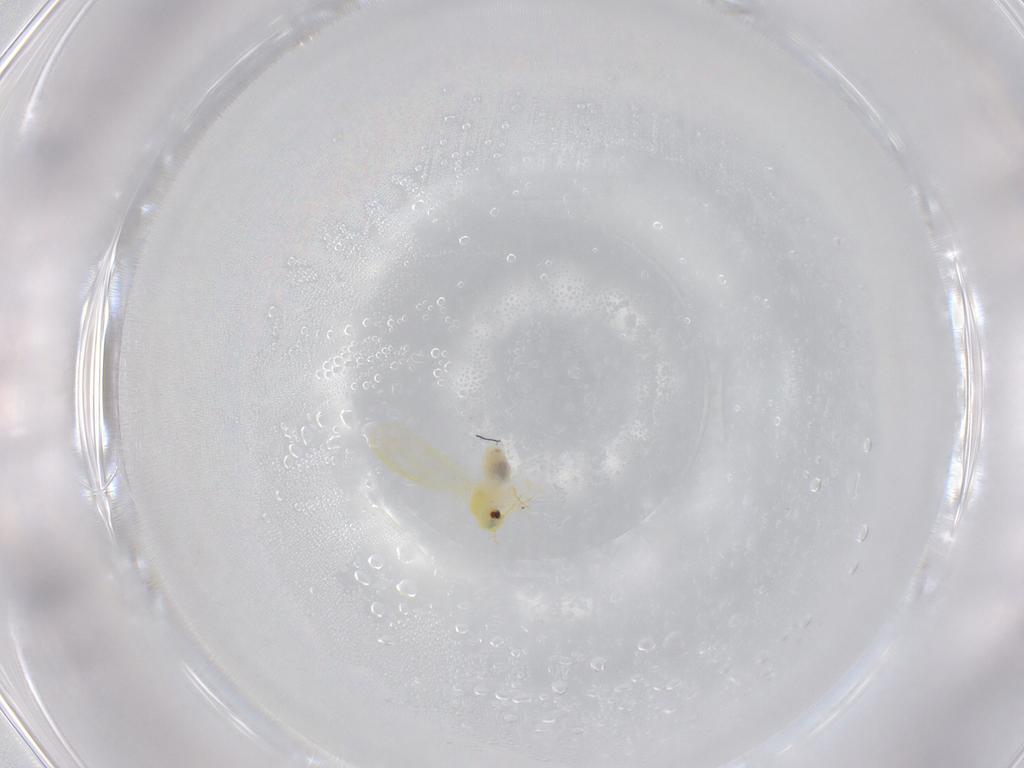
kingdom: Animalia
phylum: Arthropoda
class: Insecta
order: Hemiptera
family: Aleyrodidae
